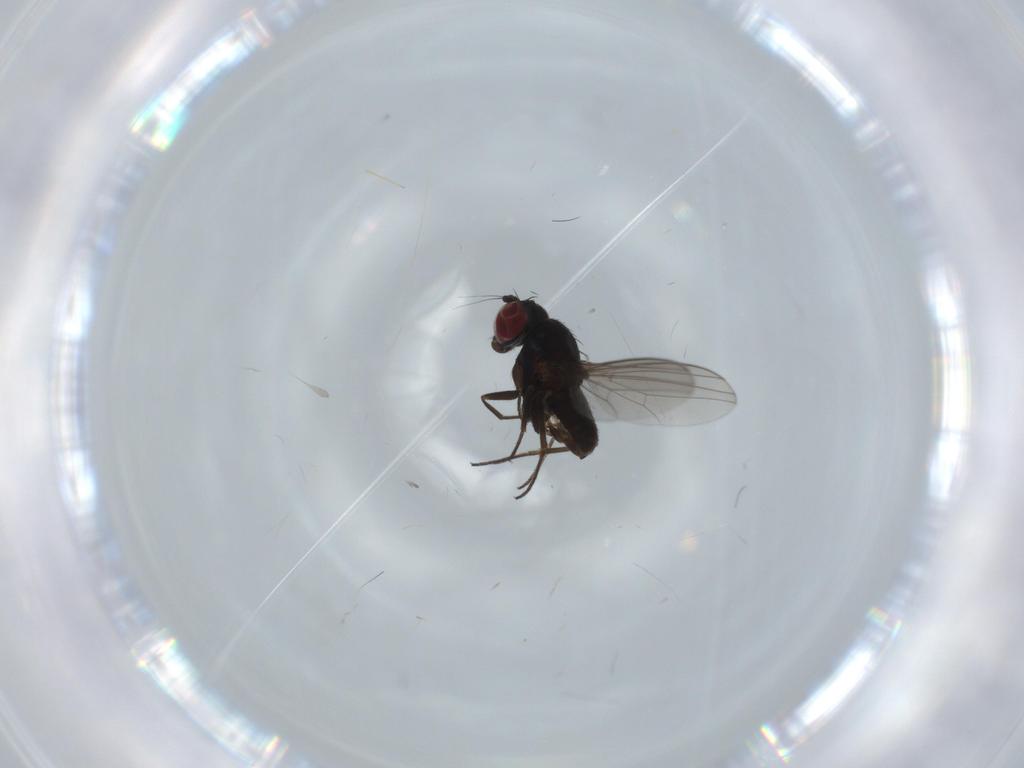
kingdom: Animalia
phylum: Arthropoda
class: Insecta
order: Diptera
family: Dolichopodidae
